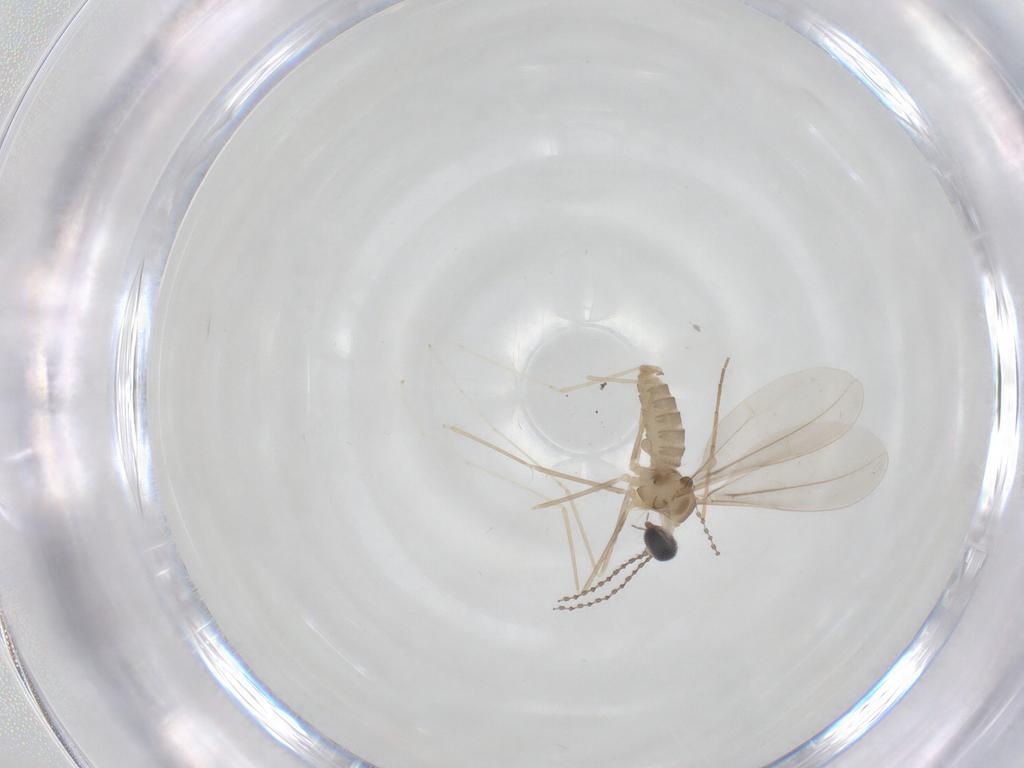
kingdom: Animalia
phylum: Arthropoda
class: Insecta
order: Diptera
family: Cecidomyiidae
